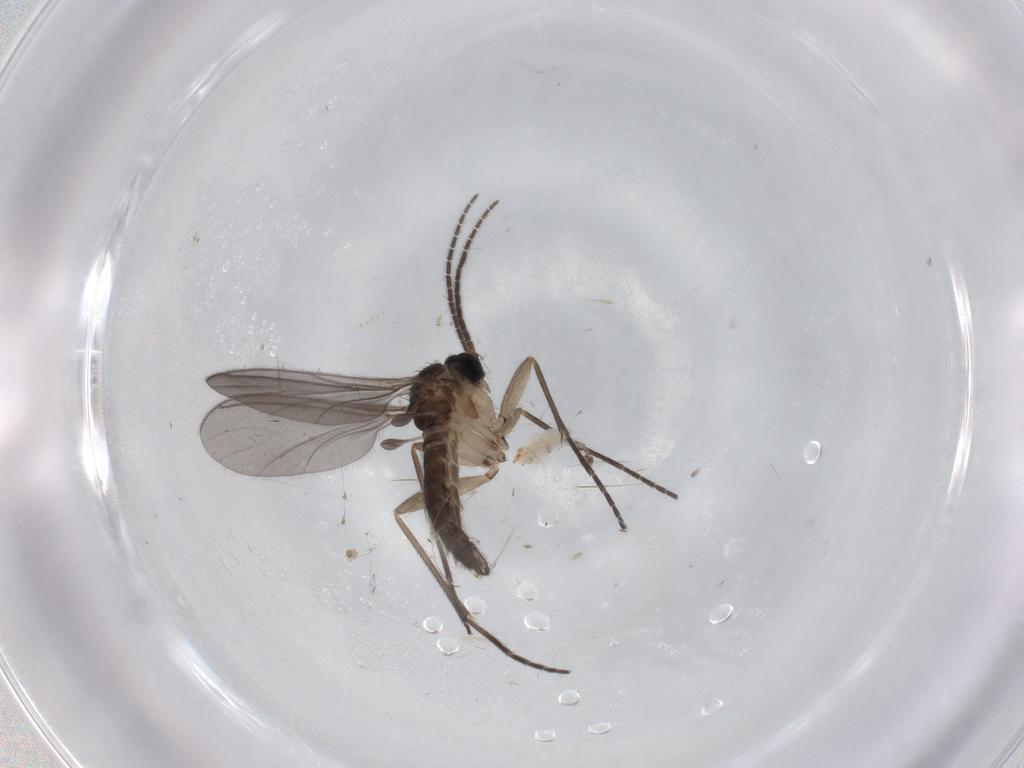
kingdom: Animalia
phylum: Arthropoda
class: Insecta
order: Diptera
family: Sciaridae
